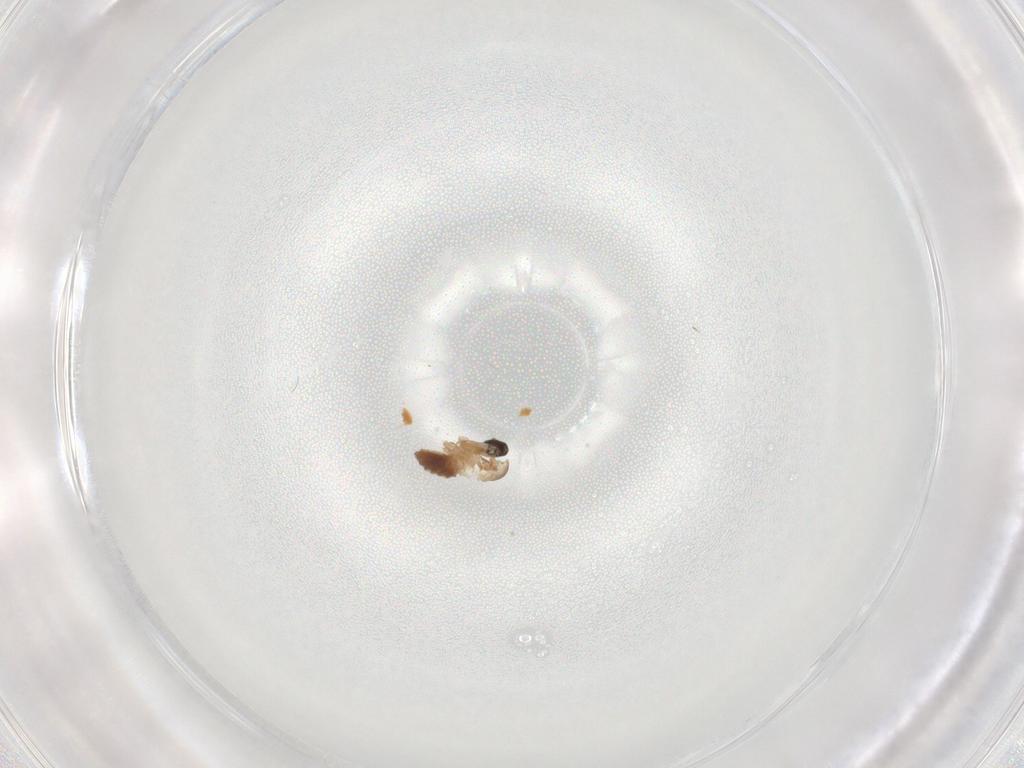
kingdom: Animalia
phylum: Arthropoda
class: Insecta
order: Diptera
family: Cecidomyiidae
